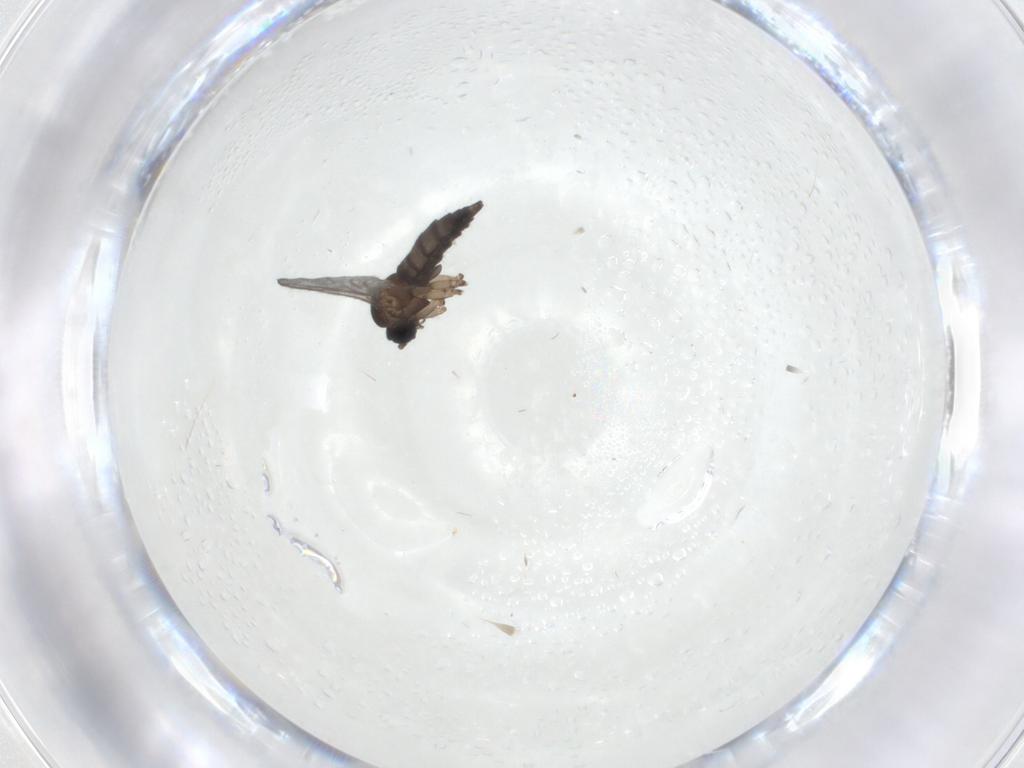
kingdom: Animalia
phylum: Arthropoda
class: Insecta
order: Diptera
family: Sciaridae
